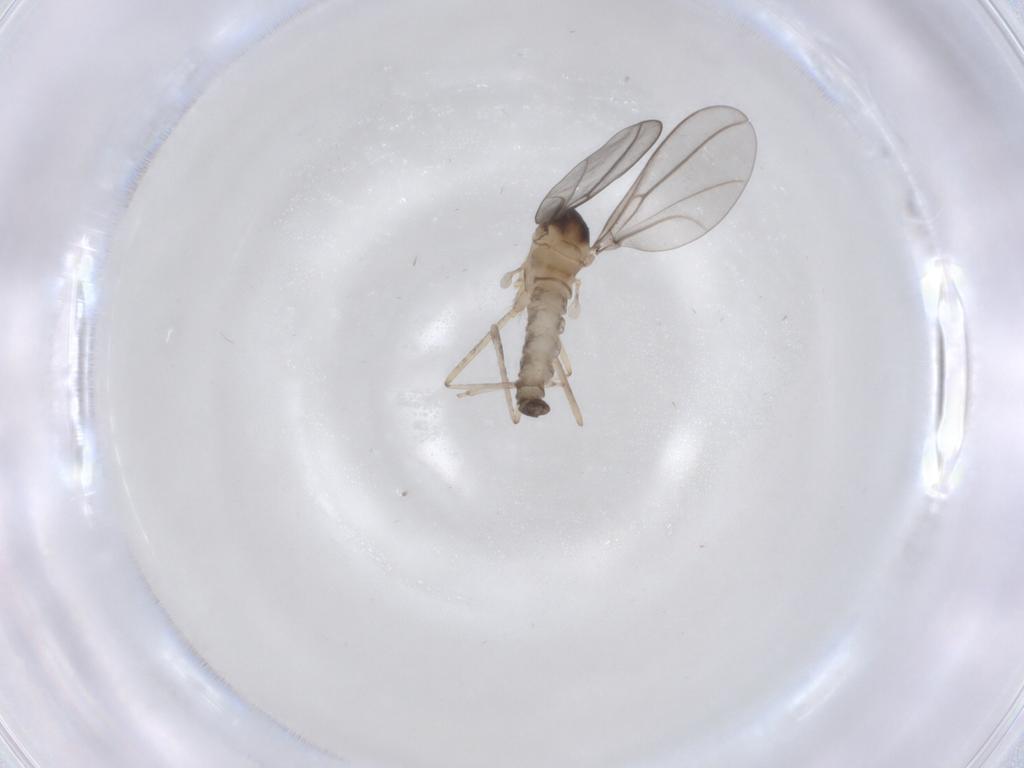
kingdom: Animalia
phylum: Arthropoda
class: Insecta
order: Diptera
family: Cecidomyiidae
